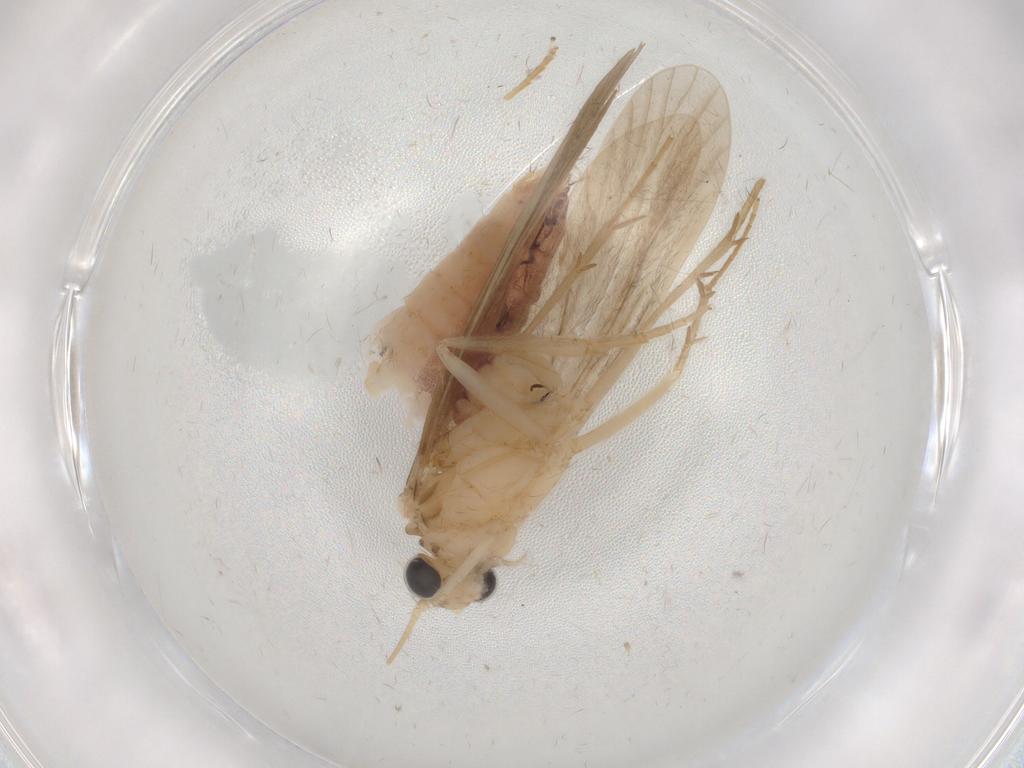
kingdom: Animalia
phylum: Arthropoda
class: Insecta
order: Trichoptera
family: Ecnomidae
